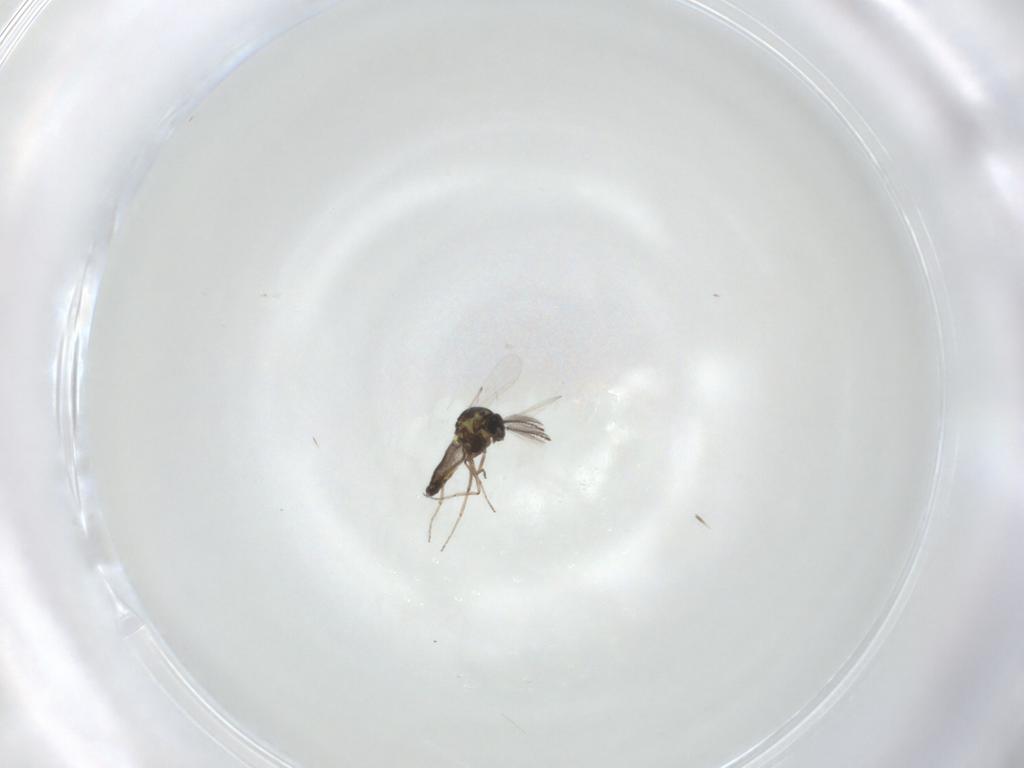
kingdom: Animalia
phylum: Arthropoda
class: Insecta
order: Diptera
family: Ceratopogonidae
